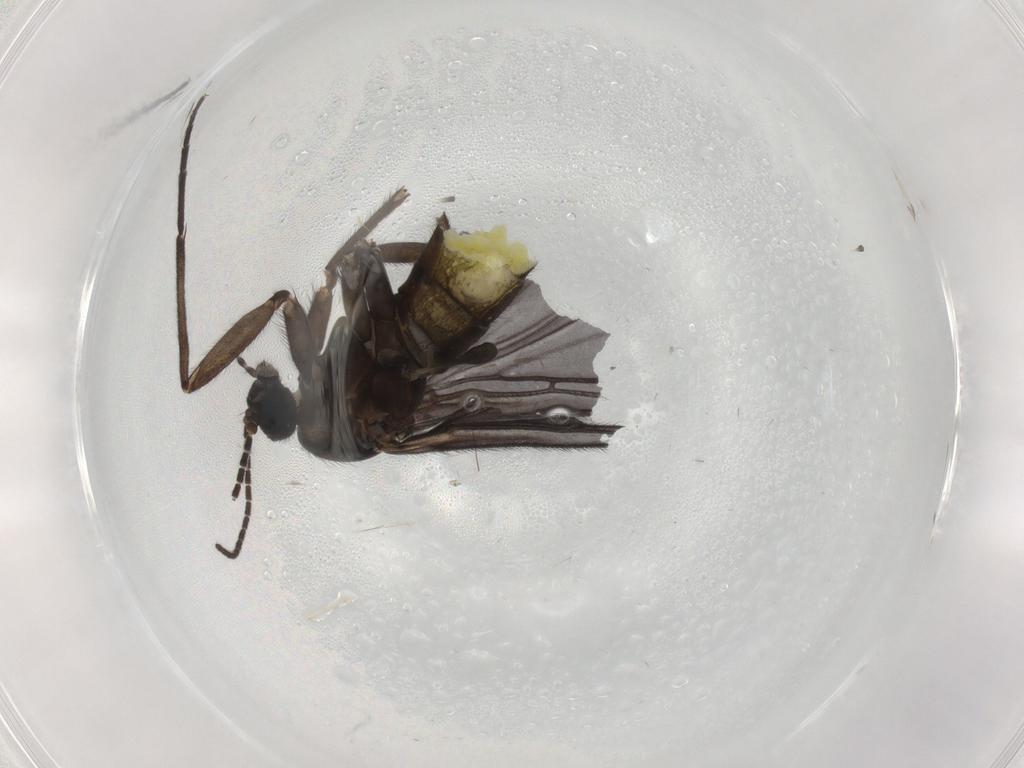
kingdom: Animalia
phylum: Arthropoda
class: Insecta
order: Diptera
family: Sciaridae
